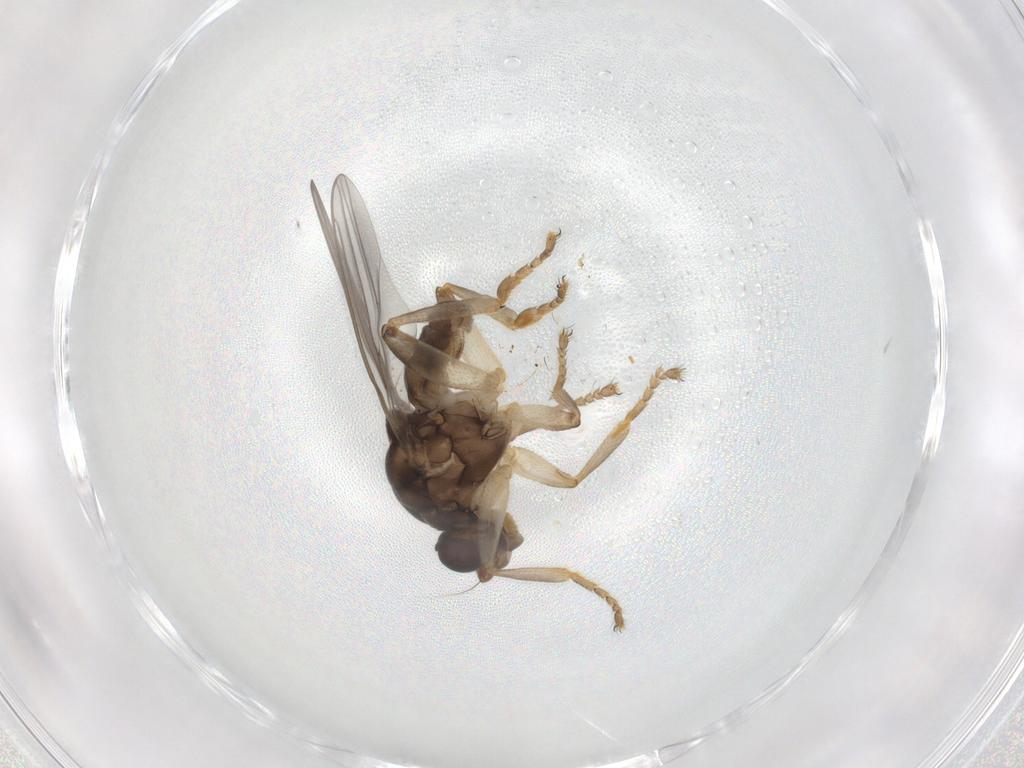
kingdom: Animalia
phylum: Arthropoda
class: Insecta
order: Diptera
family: Sphaeroceridae
